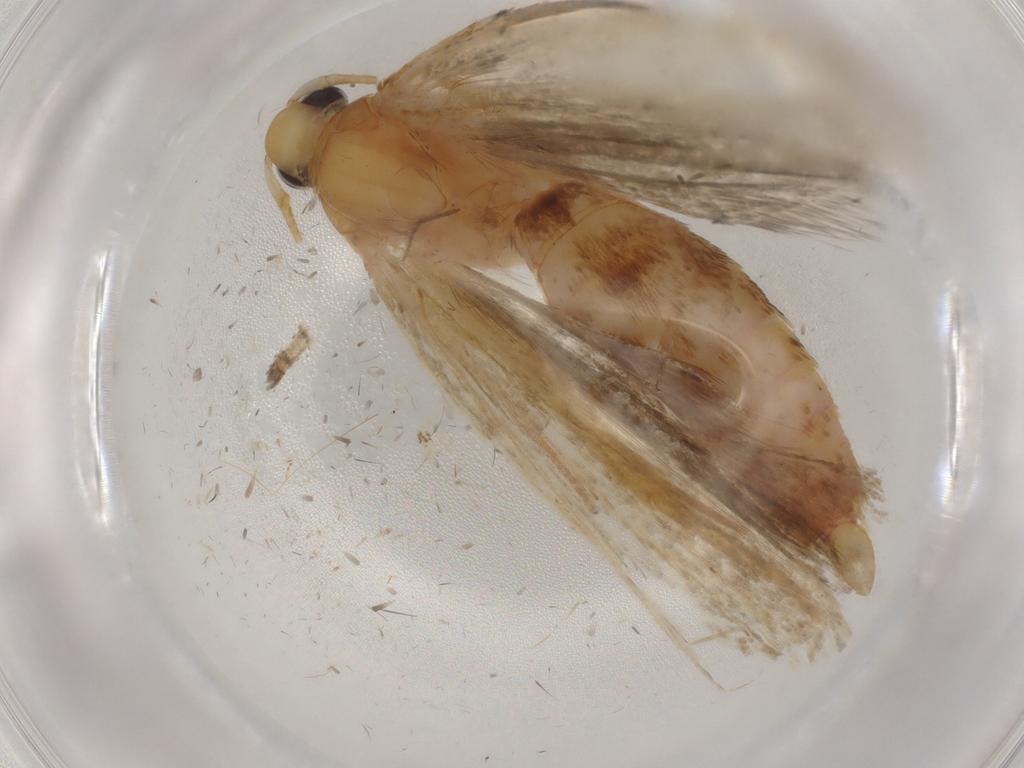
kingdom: Animalia
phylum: Arthropoda
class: Insecta
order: Lepidoptera
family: Autostichidae
